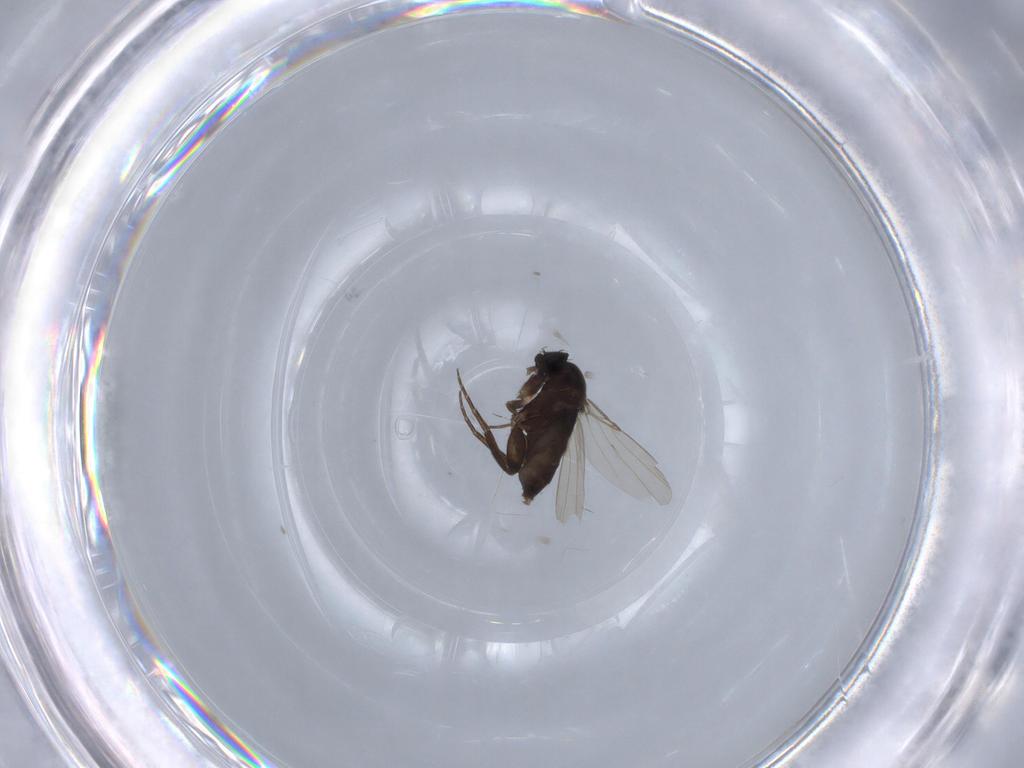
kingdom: Animalia
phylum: Arthropoda
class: Insecta
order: Diptera
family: Phoridae
